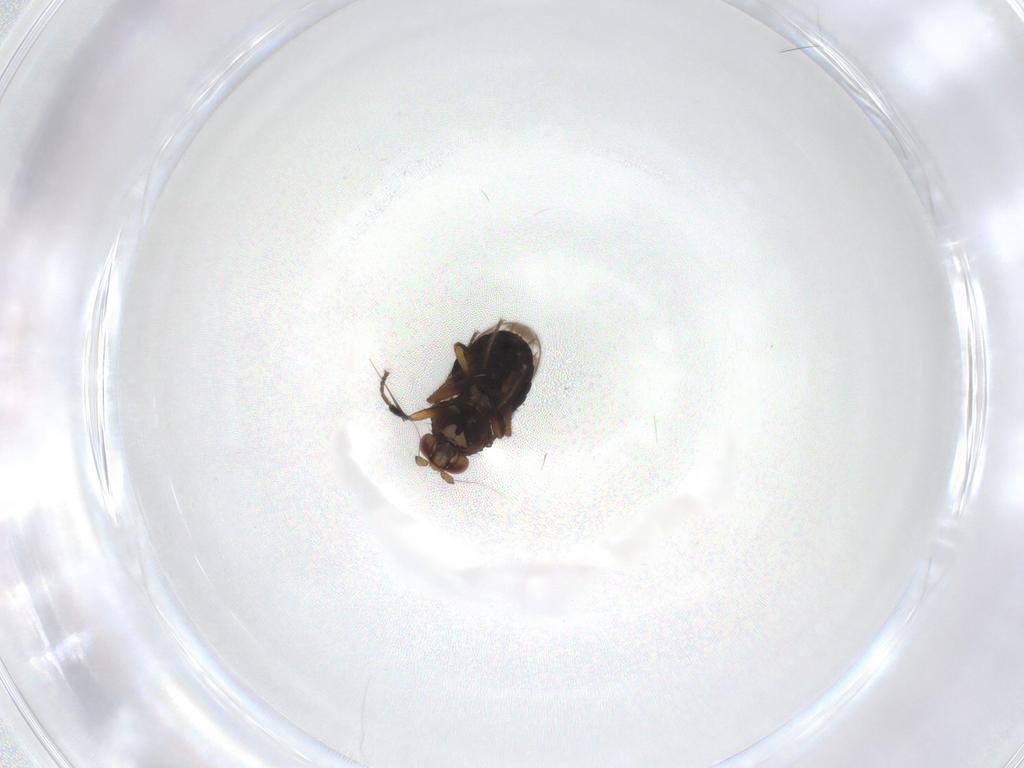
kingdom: Animalia
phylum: Arthropoda
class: Insecta
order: Diptera
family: Sphaeroceridae
